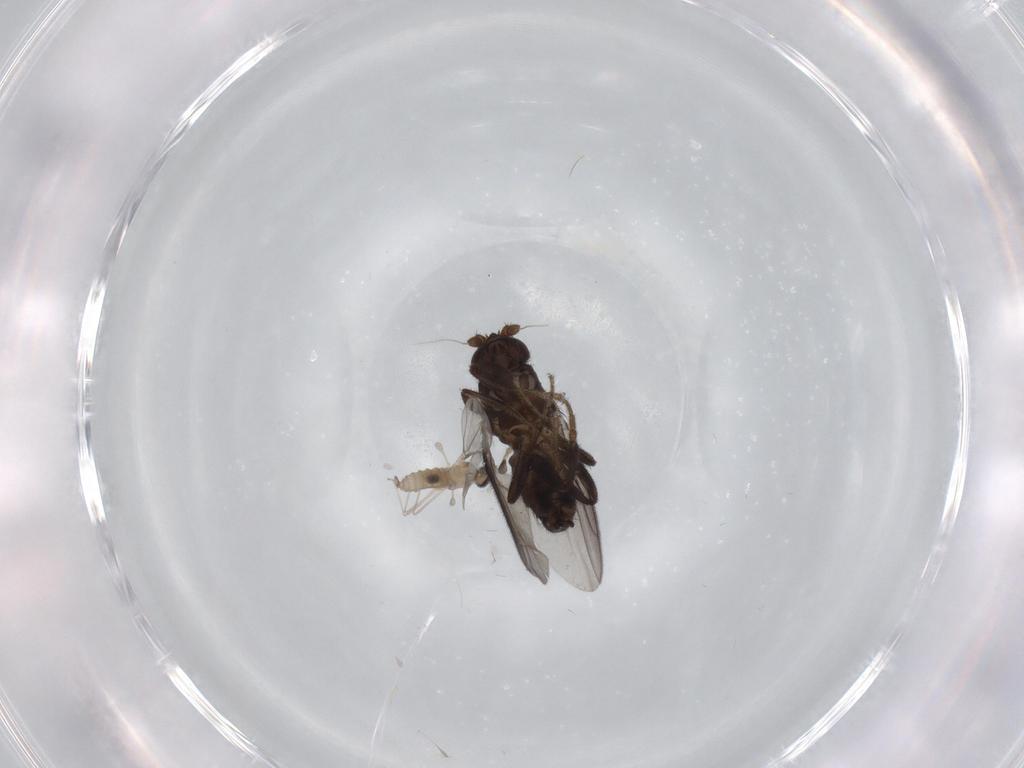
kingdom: Animalia
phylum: Arthropoda
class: Insecta
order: Diptera
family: Sphaeroceridae
